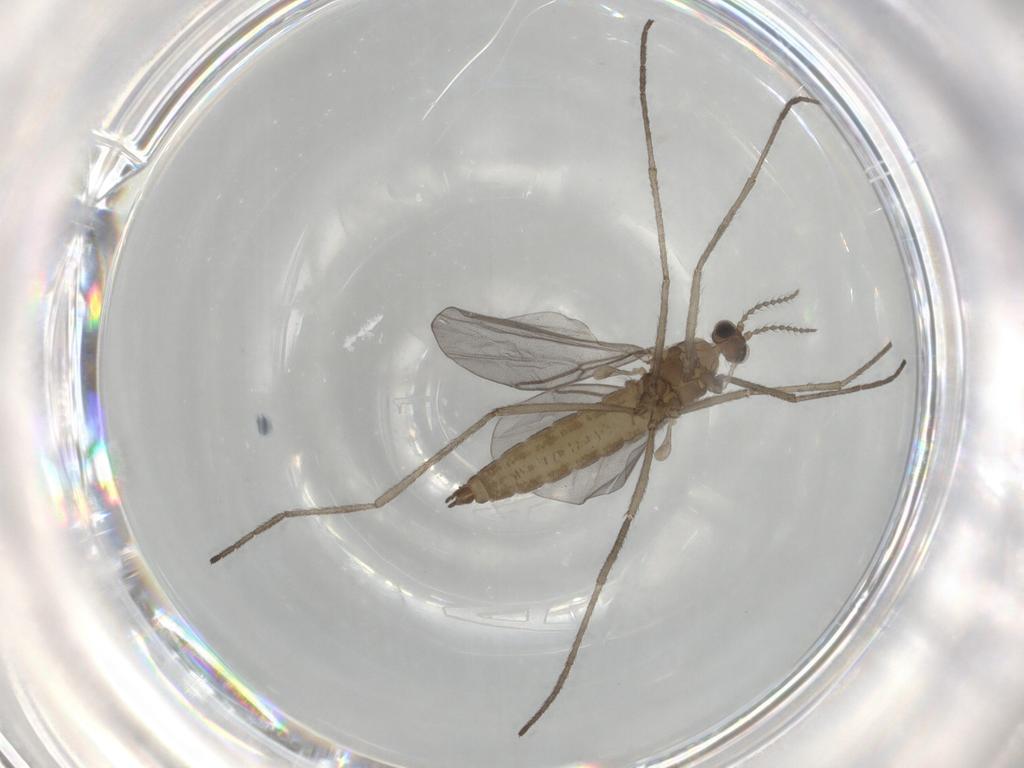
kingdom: Animalia
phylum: Arthropoda
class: Insecta
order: Diptera
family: Cecidomyiidae
